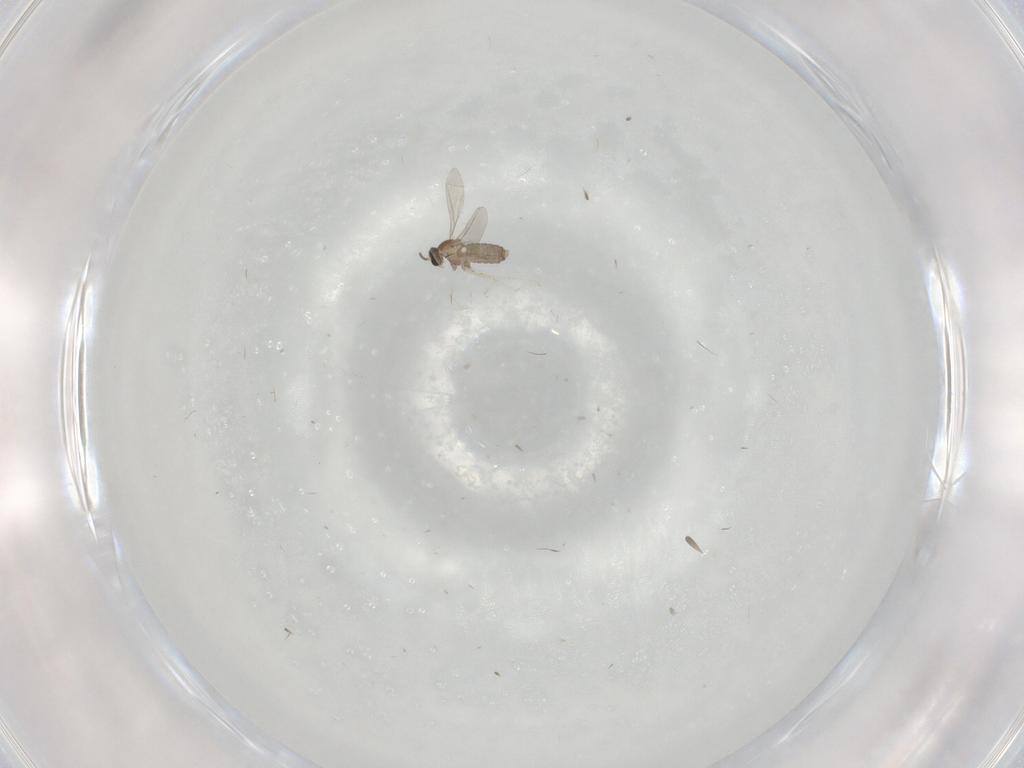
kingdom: Animalia
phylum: Arthropoda
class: Insecta
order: Diptera
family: Cecidomyiidae
